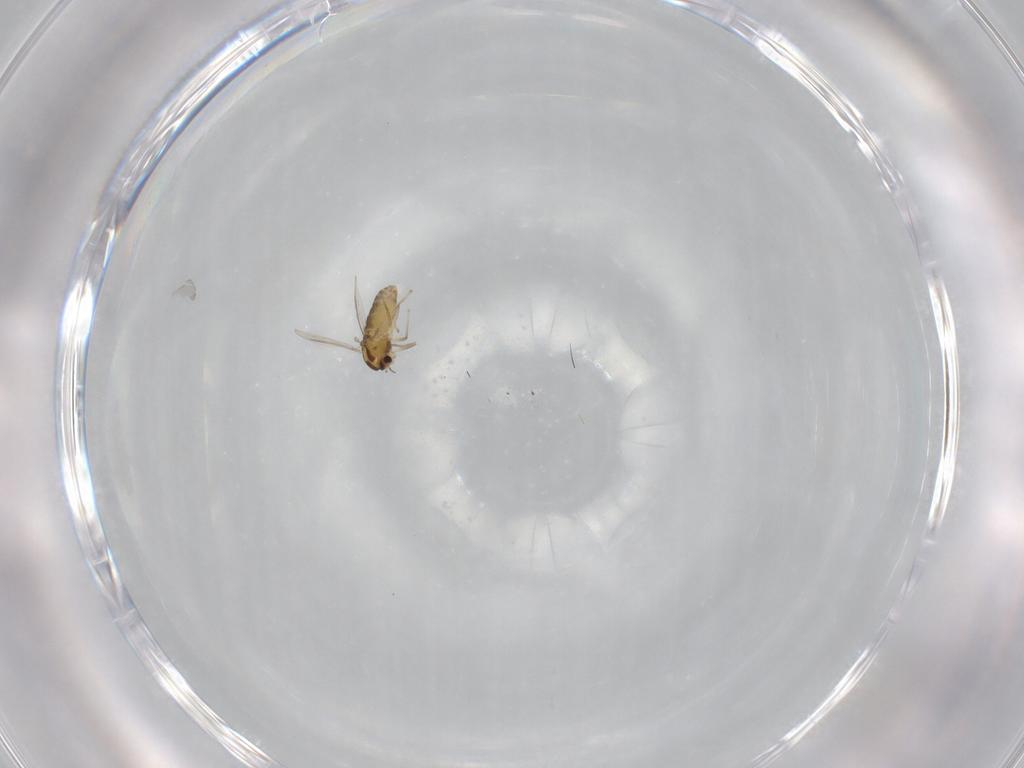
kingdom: Animalia
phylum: Arthropoda
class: Insecta
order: Diptera
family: Chironomidae
